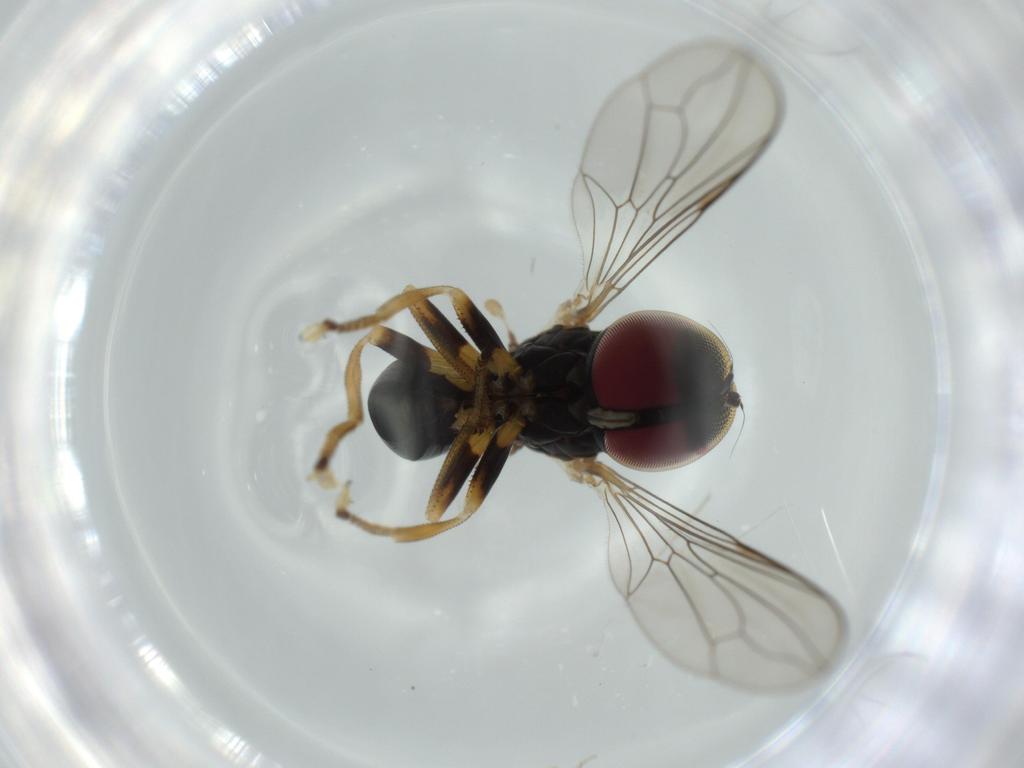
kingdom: Animalia
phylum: Arthropoda
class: Insecta
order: Diptera
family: Pipunculidae
